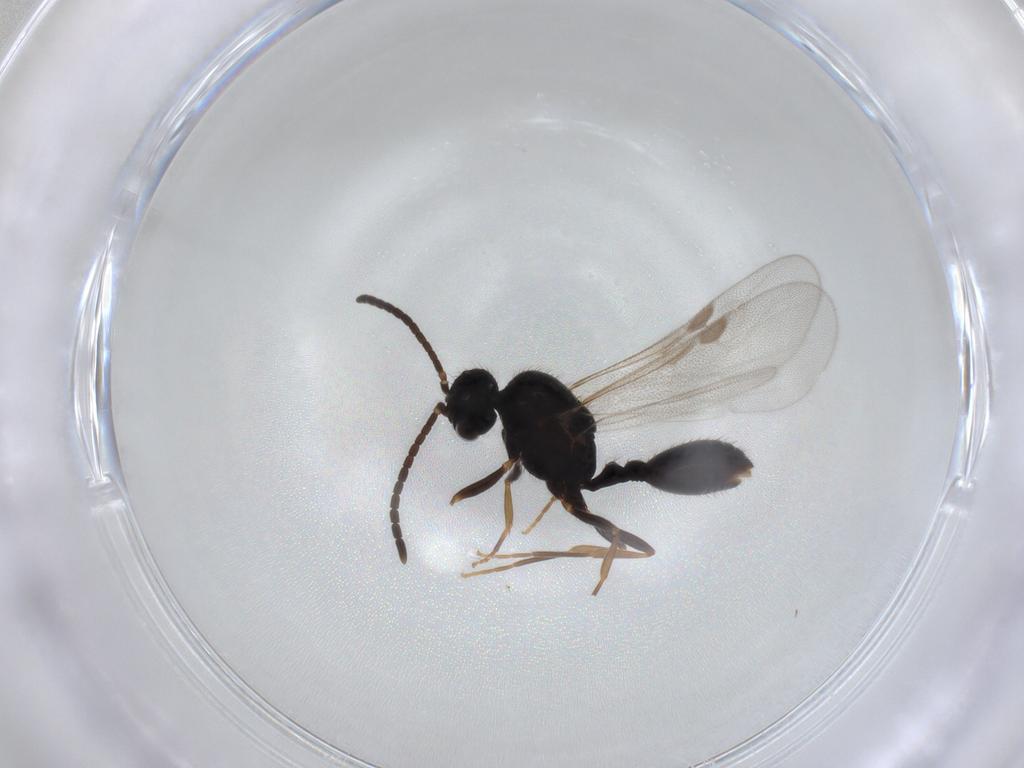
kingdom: Animalia
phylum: Arthropoda
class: Insecta
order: Hymenoptera
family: Formicidae
